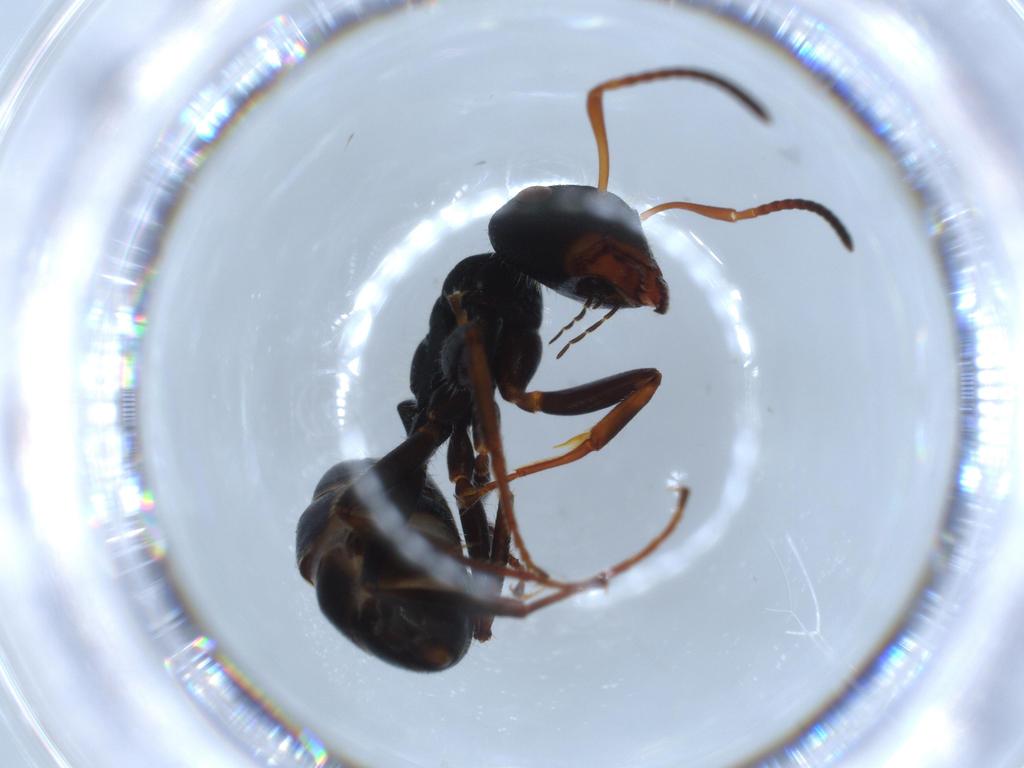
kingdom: Animalia
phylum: Arthropoda
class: Insecta
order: Hymenoptera
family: Formicidae
